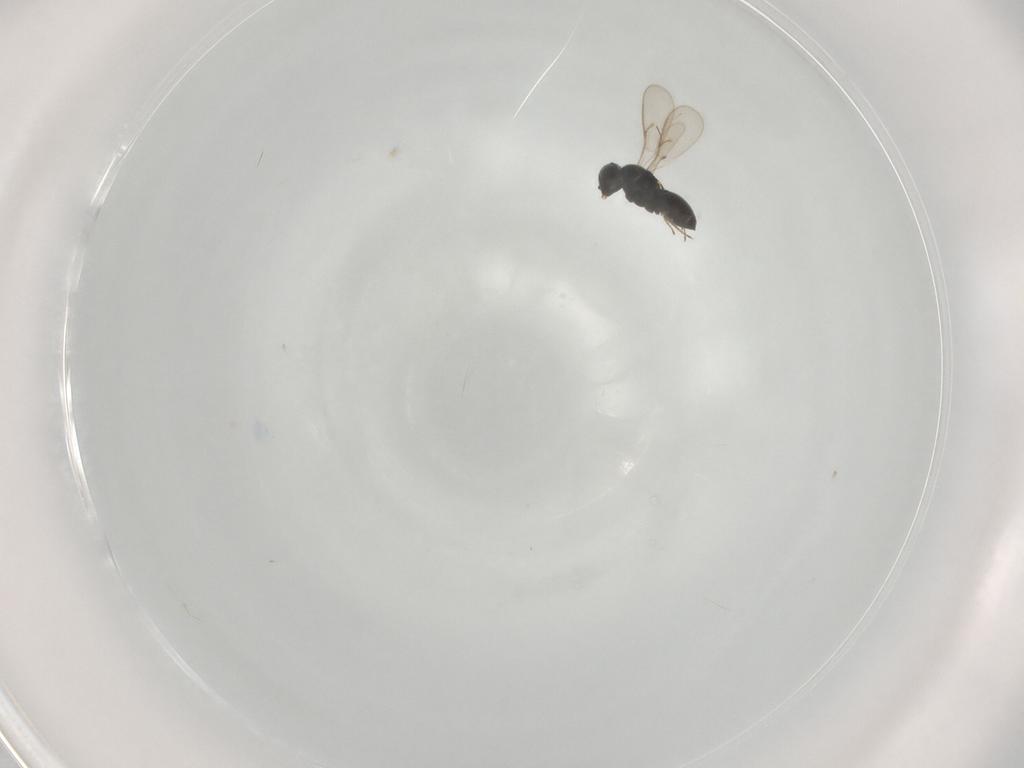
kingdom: Animalia
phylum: Arthropoda
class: Insecta
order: Hymenoptera
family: Scelionidae
